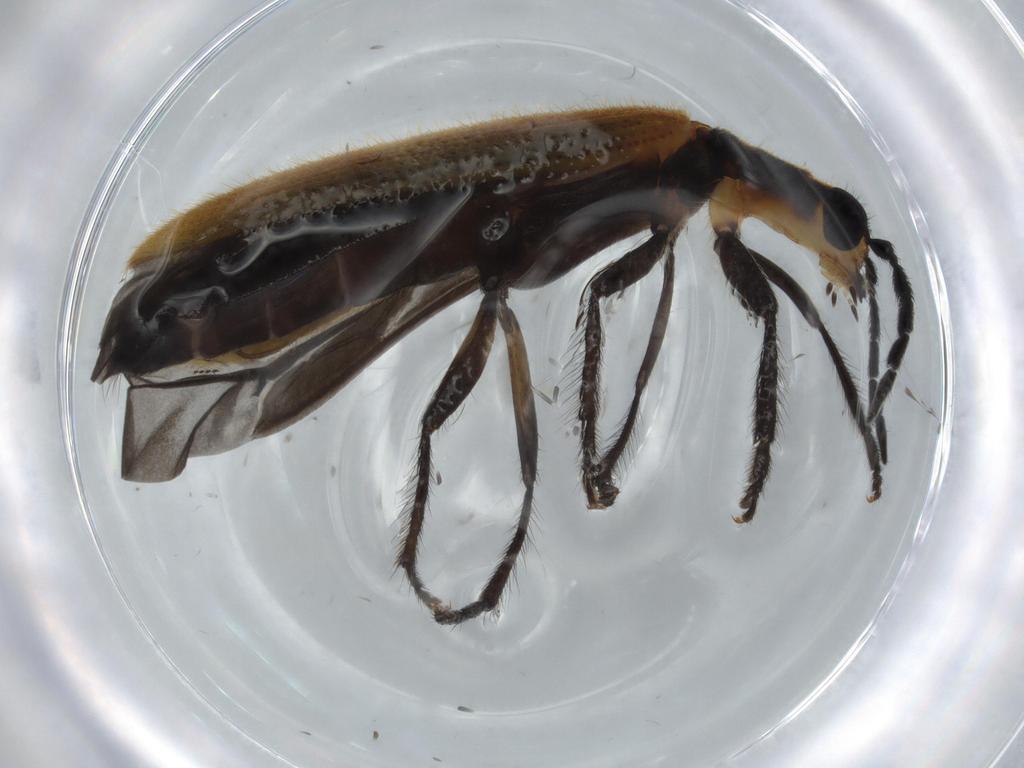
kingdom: Animalia
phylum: Arthropoda
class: Insecta
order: Coleoptera
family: Cleridae
